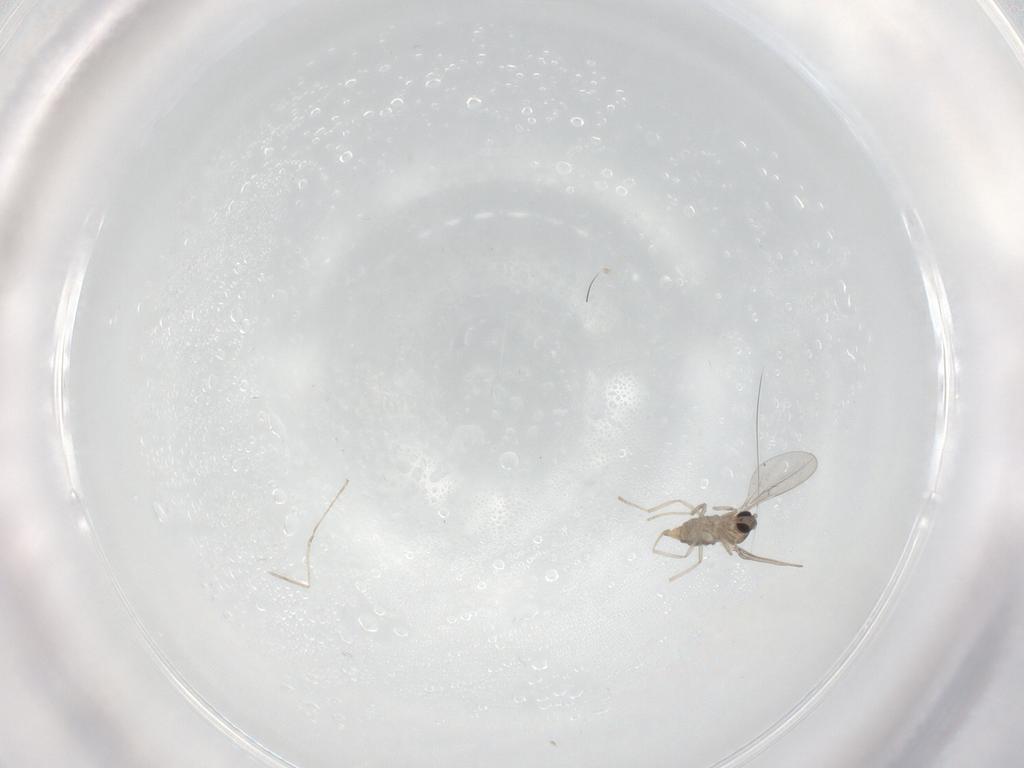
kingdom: Animalia
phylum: Arthropoda
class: Insecta
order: Diptera
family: Cecidomyiidae
